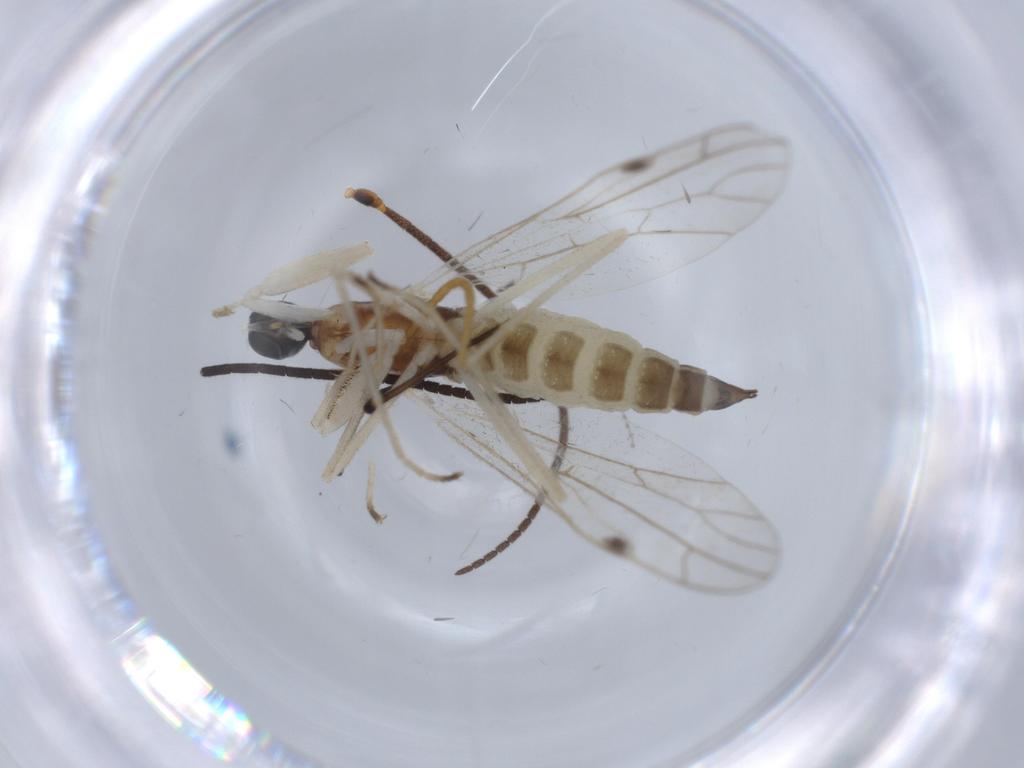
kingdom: Animalia
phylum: Arthropoda
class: Insecta
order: Diptera
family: Empididae
